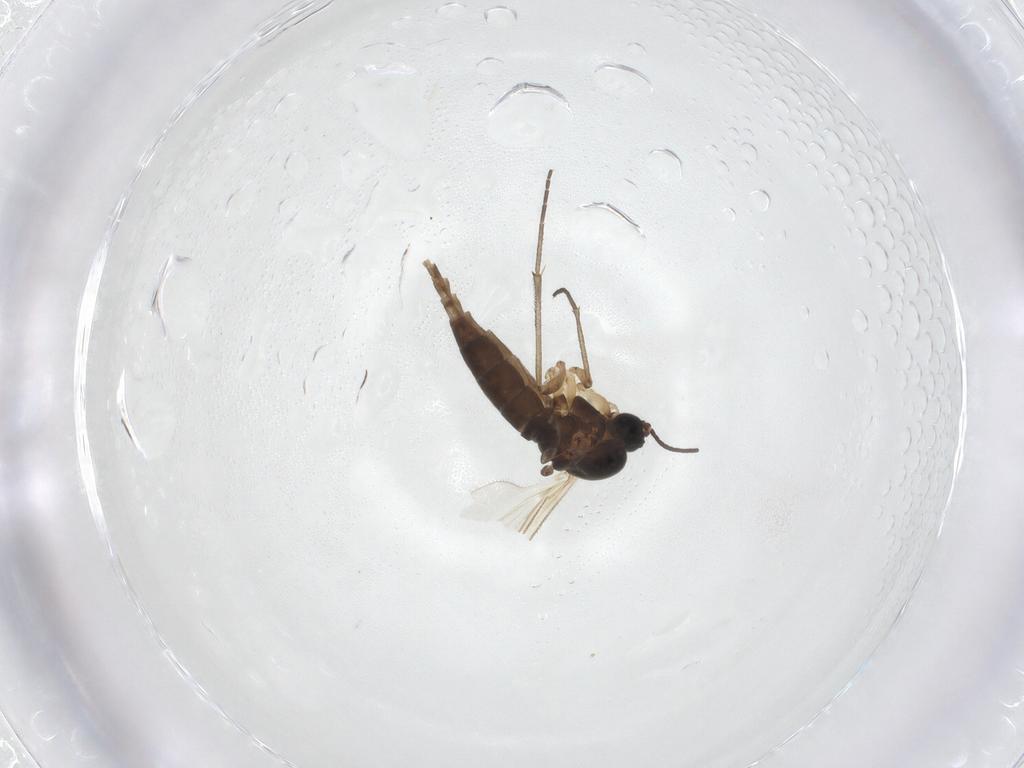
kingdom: Animalia
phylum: Arthropoda
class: Insecta
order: Diptera
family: Sciaridae
